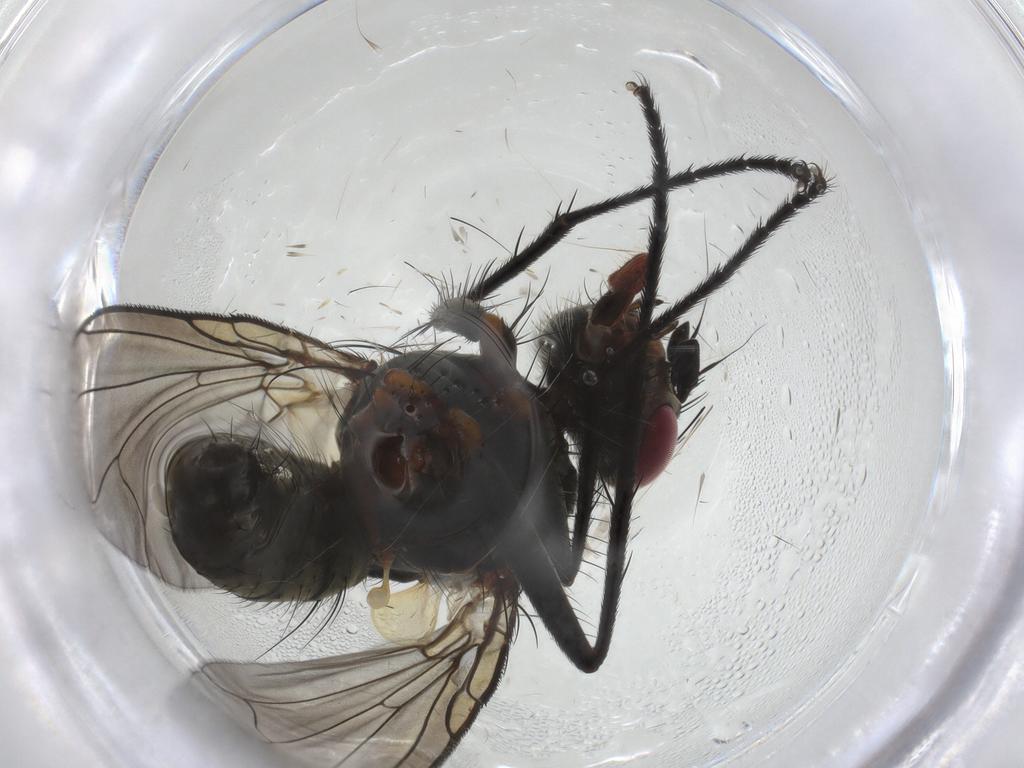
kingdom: Animalia
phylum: Arthropoda
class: Insecta
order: Diptera
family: Tachinidae
